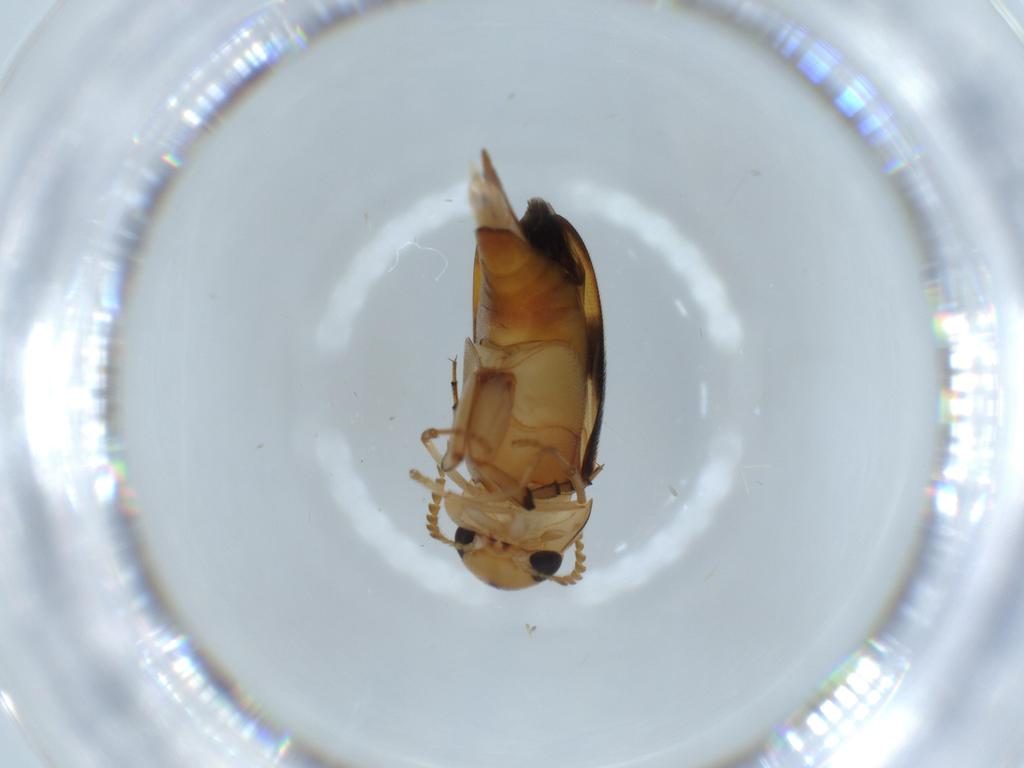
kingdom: Animalia
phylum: Arthropoda
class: Insecta
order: Coleoptera
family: Mordellidae
